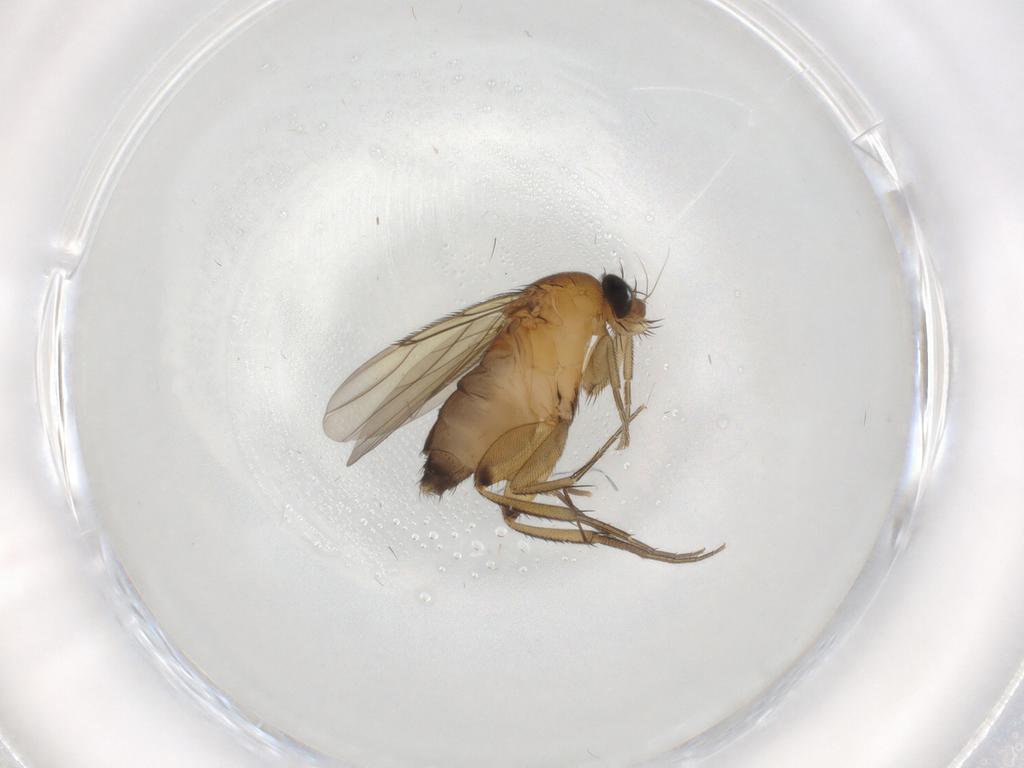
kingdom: Animalia
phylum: Arthropoda
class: Insecta
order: Diptera
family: Phoridae
